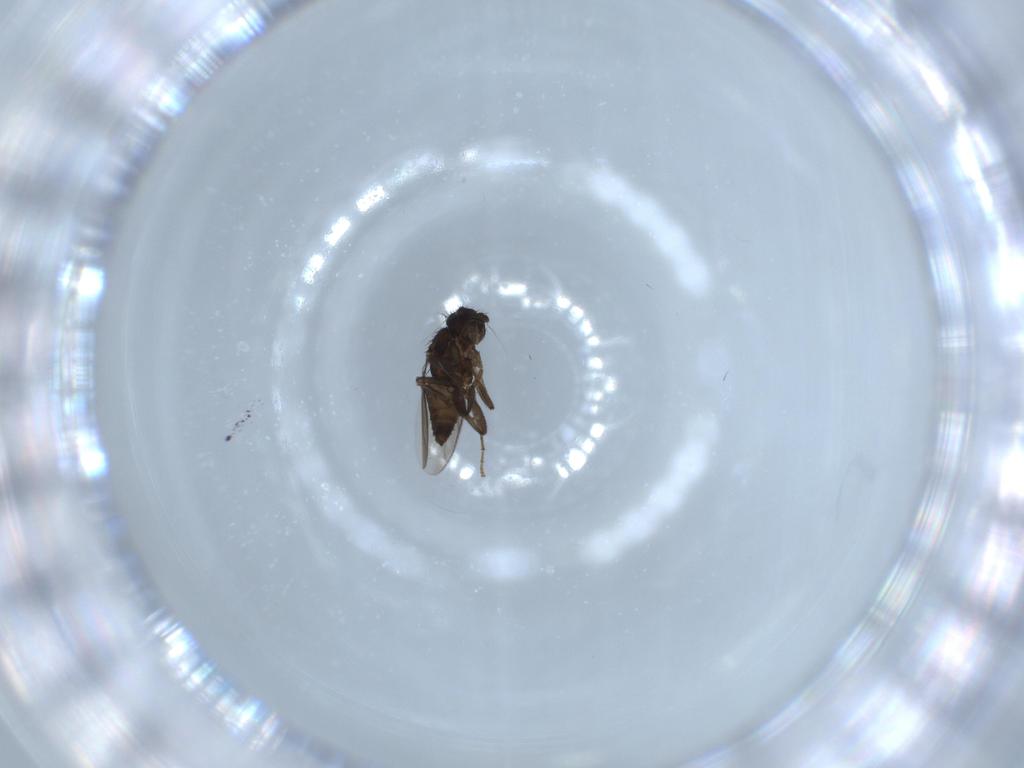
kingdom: Animalia
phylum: Arthropoda
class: Insecta
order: Diptera
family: Sphaeroceridae
